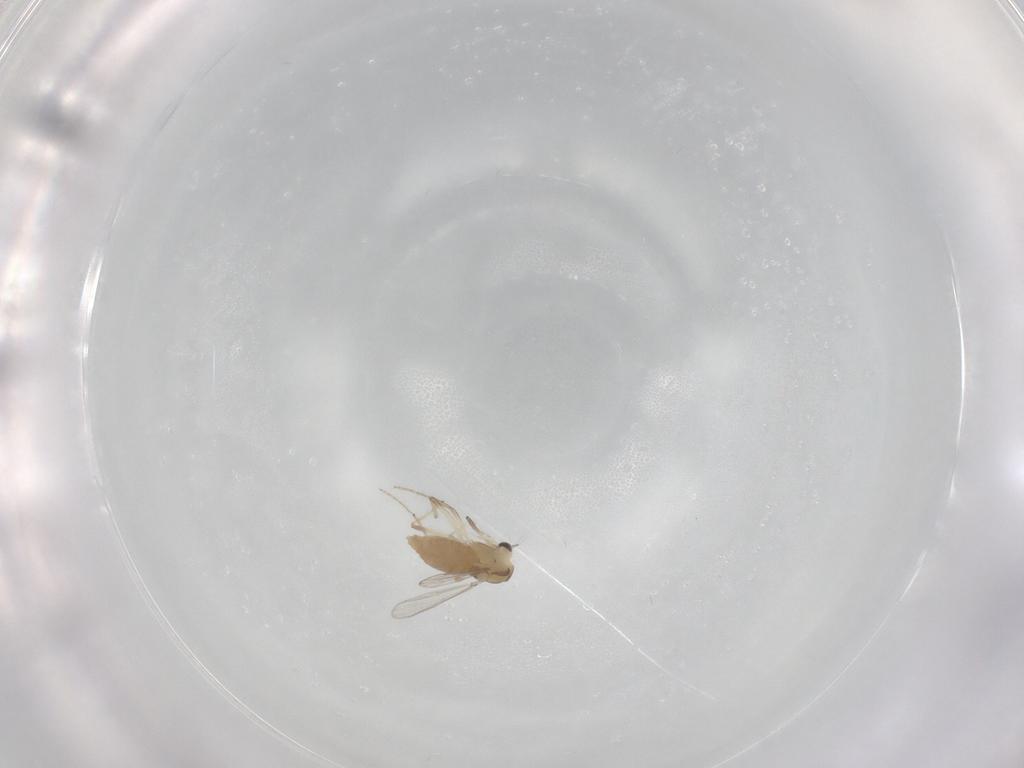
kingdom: Animalia
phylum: Arthropoda
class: Insecta
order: Diptera
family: Chironomidae
